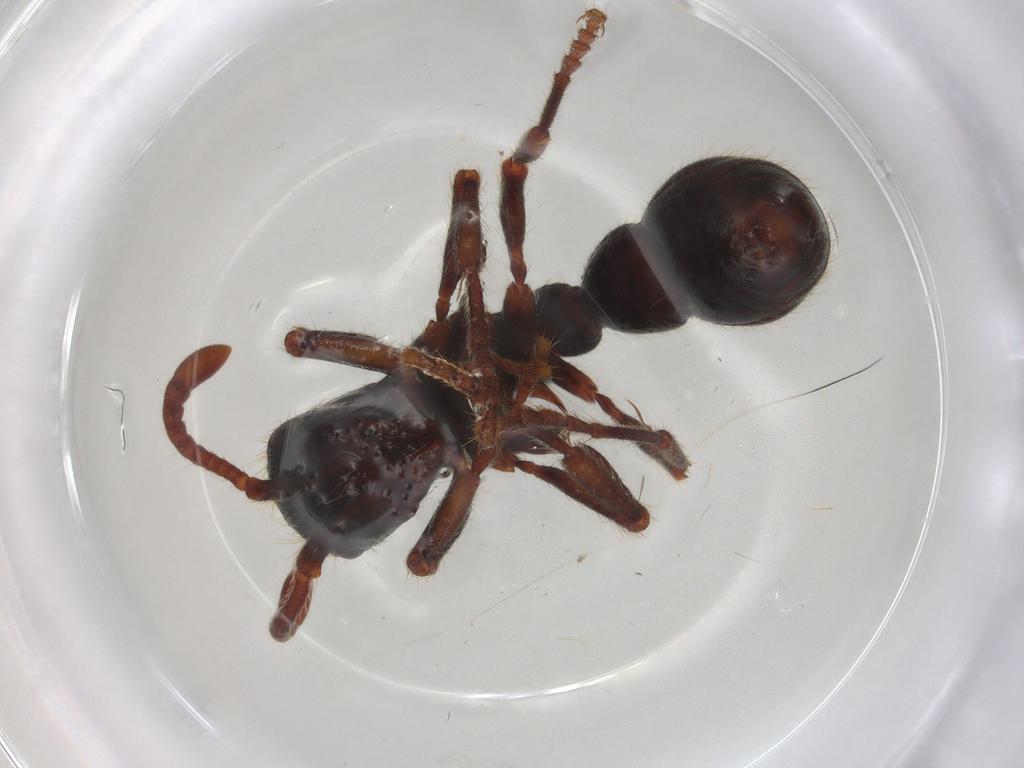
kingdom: Animalia
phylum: Arthropoda
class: Insecta
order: Hymenoptera
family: Formicidae
